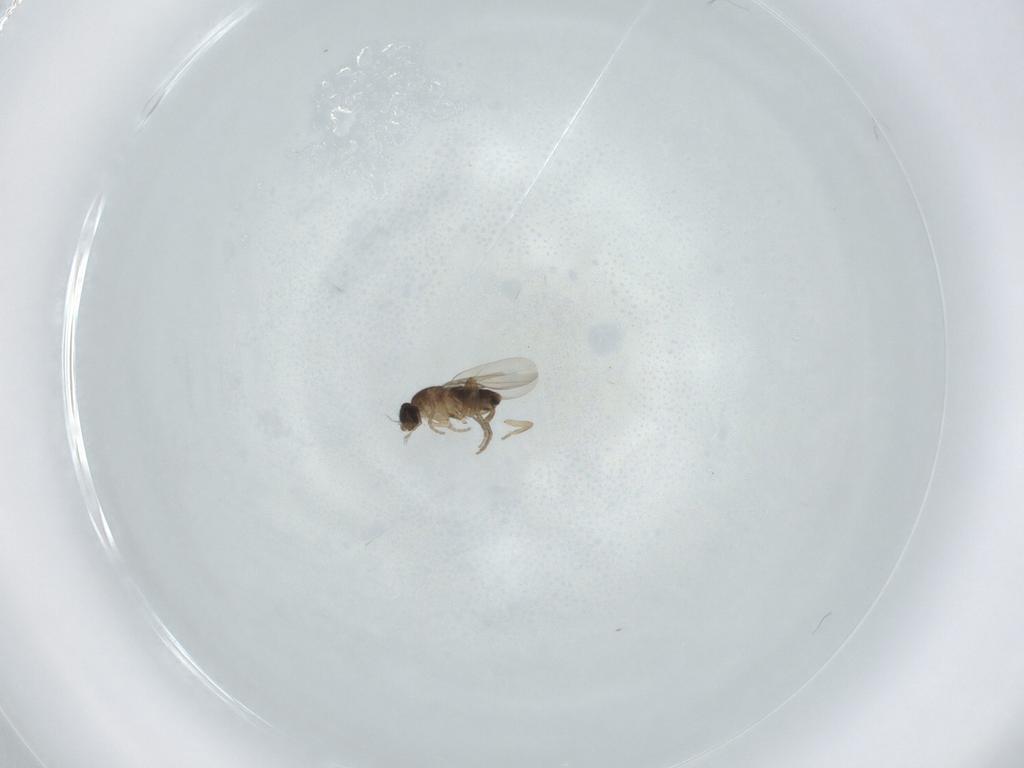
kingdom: Animalia
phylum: Arthropoda
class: Insecta
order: Diptera
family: Phoridae
